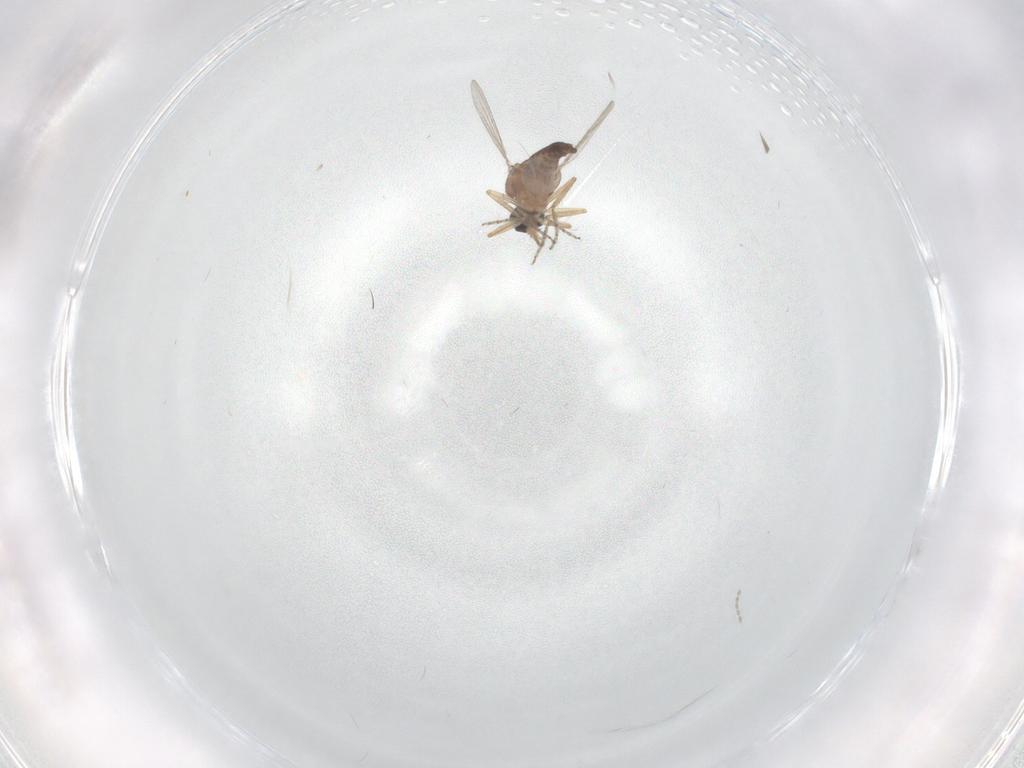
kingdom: Animalia
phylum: Arthropoda
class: Insecta
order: Diptera
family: Ceratopogonidae
